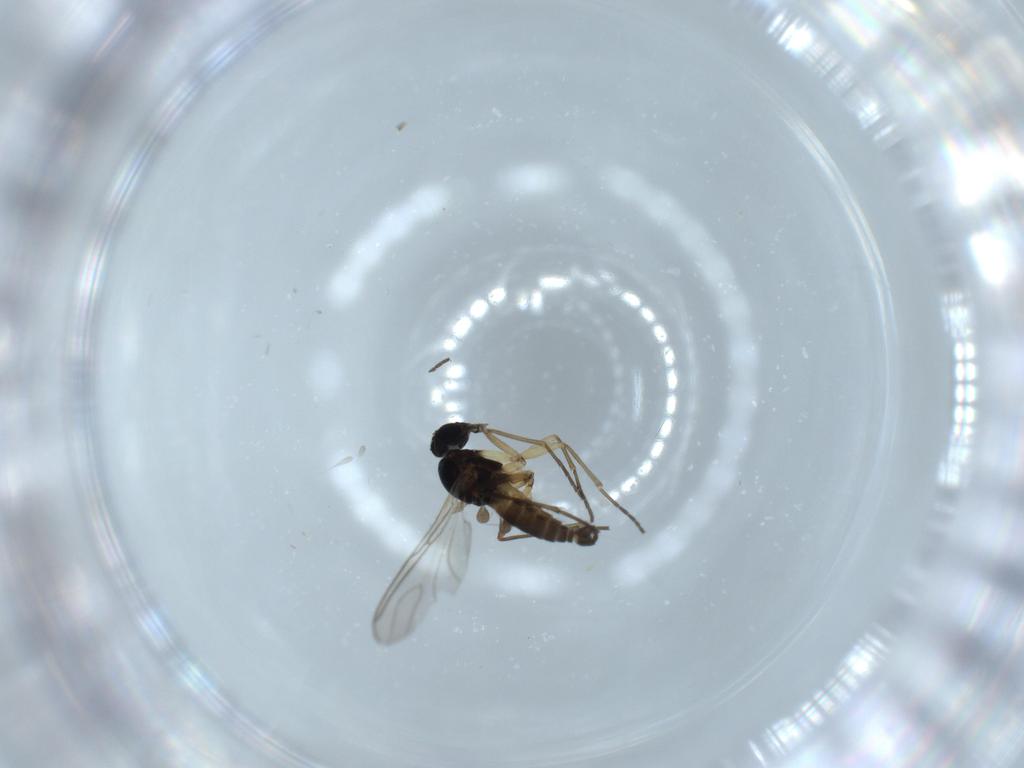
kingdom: Animalia
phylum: Arthropoda
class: Insecta
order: Diptera
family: Sciaridae
